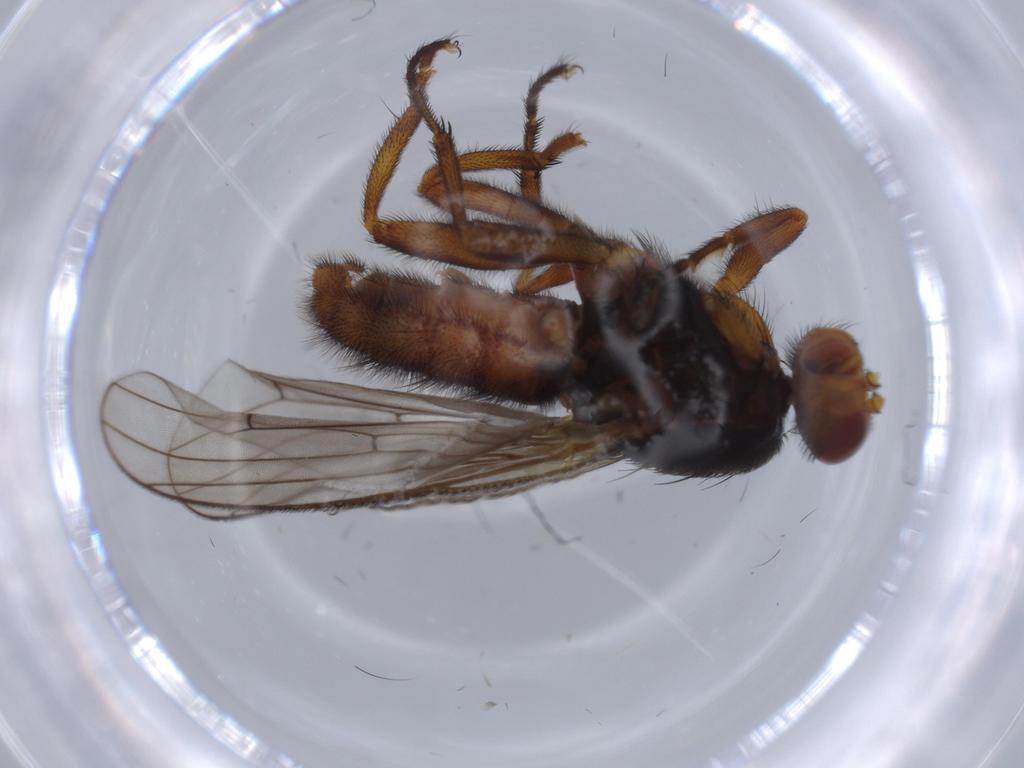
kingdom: Animalia
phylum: Arthropoda
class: Insecta
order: Diptera
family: Heleomyzidae
